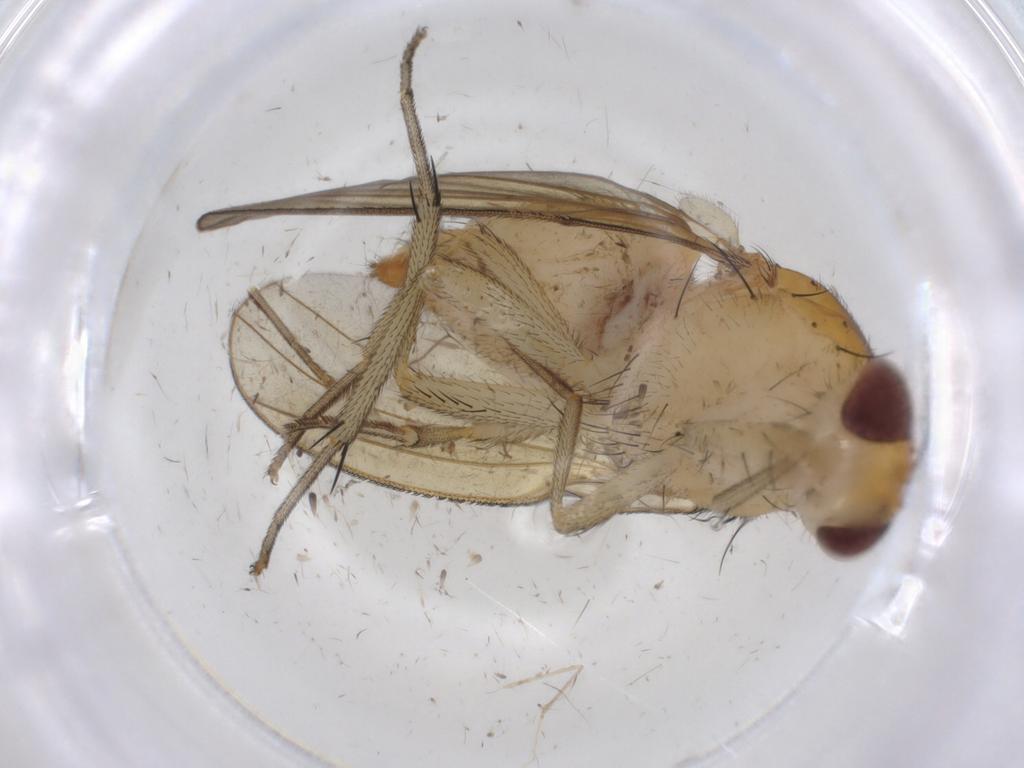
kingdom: Animalia
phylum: Arthropoda
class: Insecta
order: Diptera
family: Cecidomyiidae
